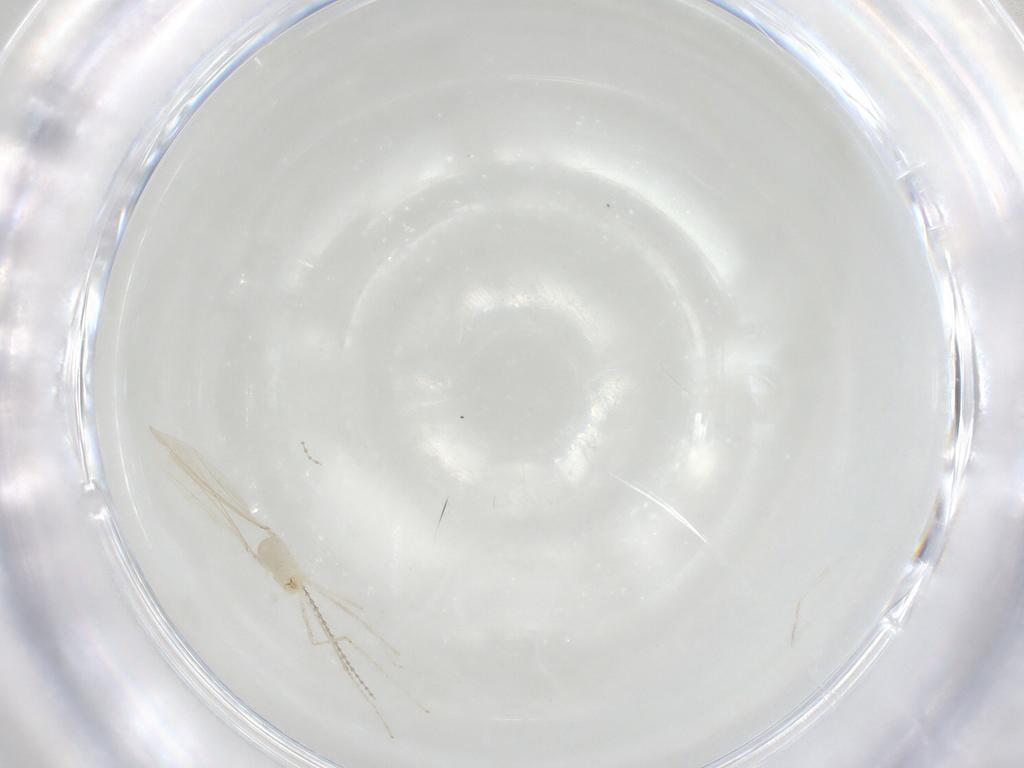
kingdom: Animalia
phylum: Arthropoda
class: Insecta
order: Diptera
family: Cecidomyiidae
